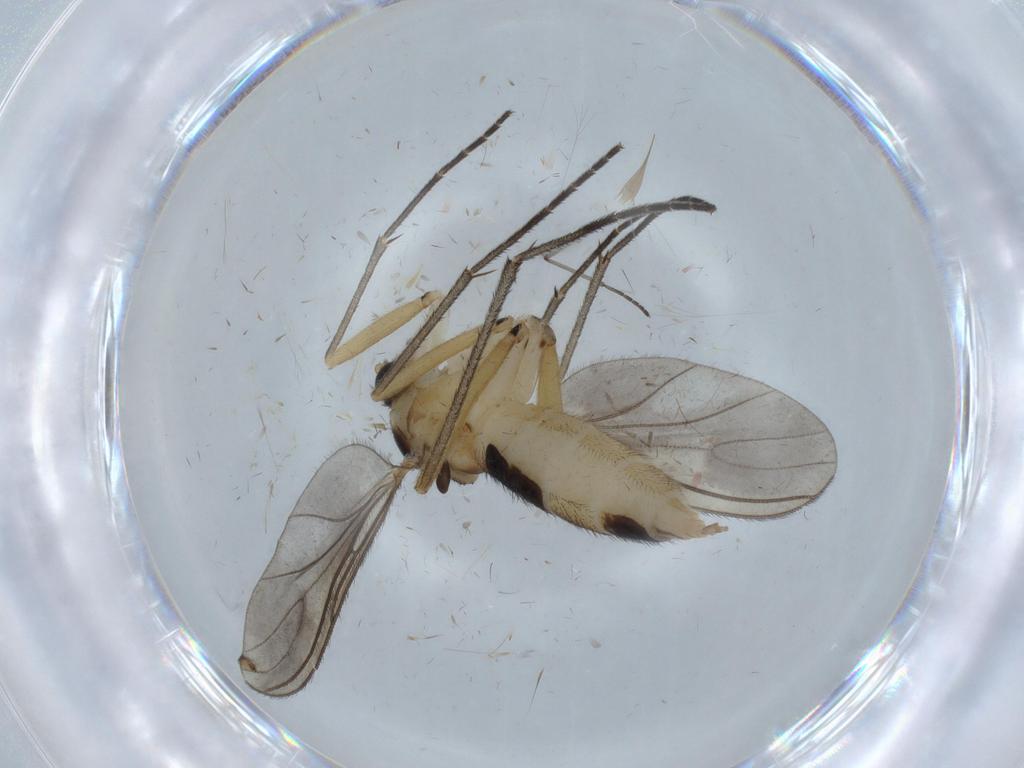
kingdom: Animalia
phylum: Arthropoda
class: Insecta
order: Diptera
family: Sciaridae
